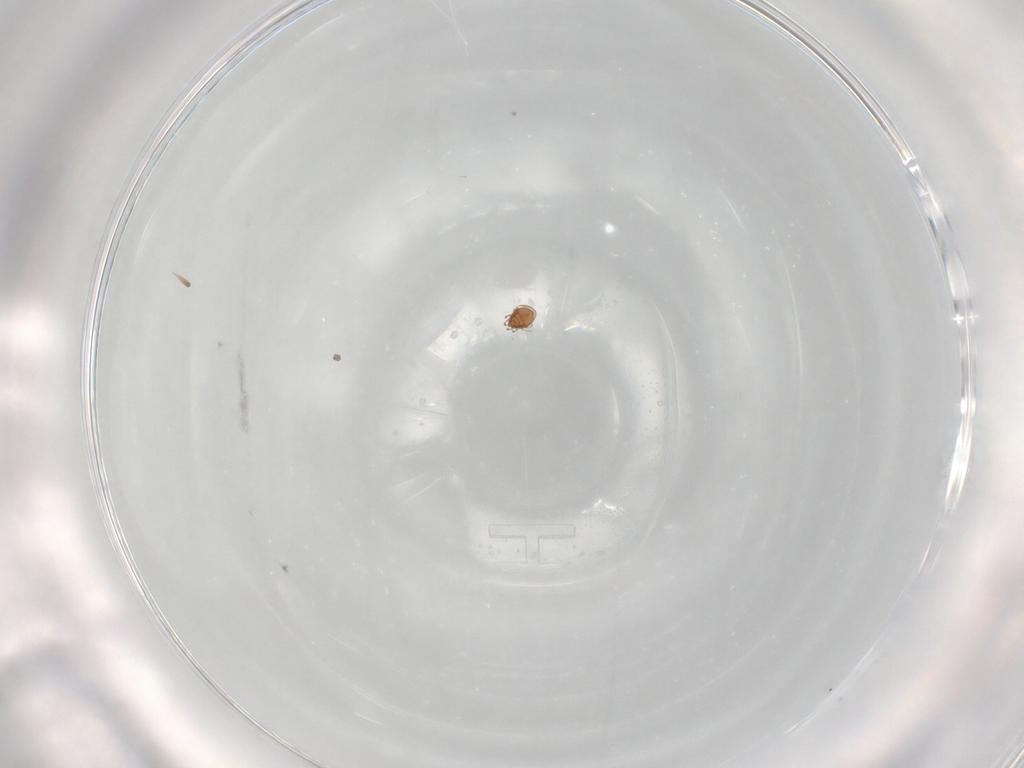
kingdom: Animalia
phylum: Arthropoda
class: Arachnida
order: Sarcoptiformes
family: Astegistidae
